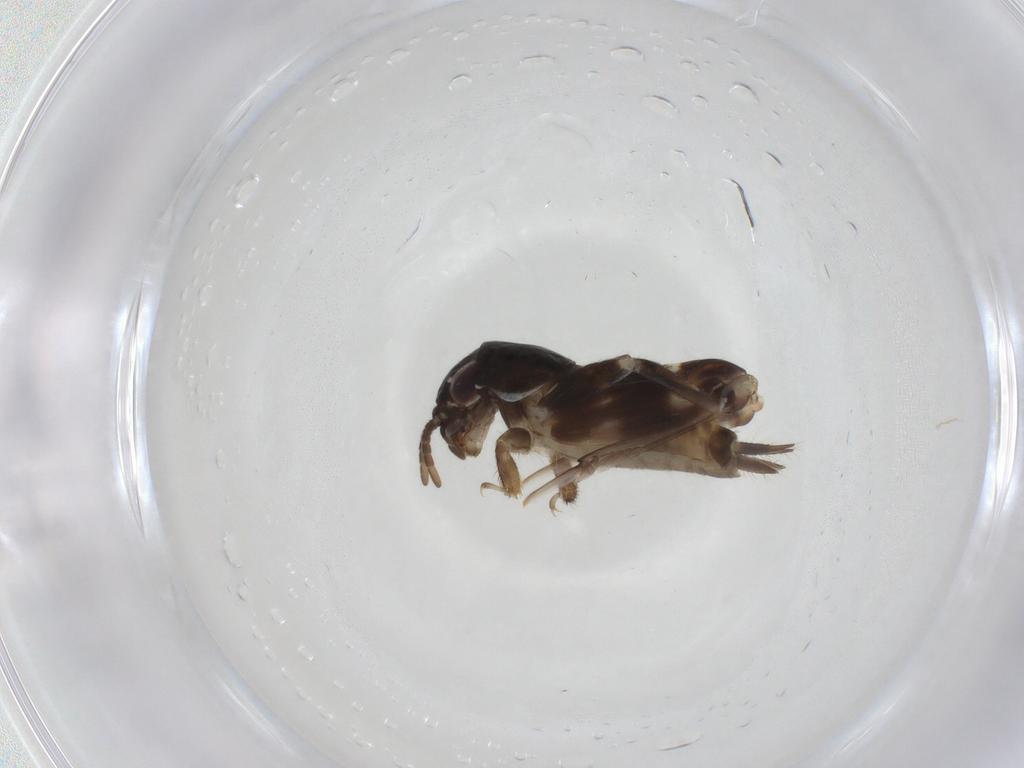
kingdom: Animalia
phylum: Arthropoda
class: Insecta
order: Orthoptera
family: Tridactylidae
